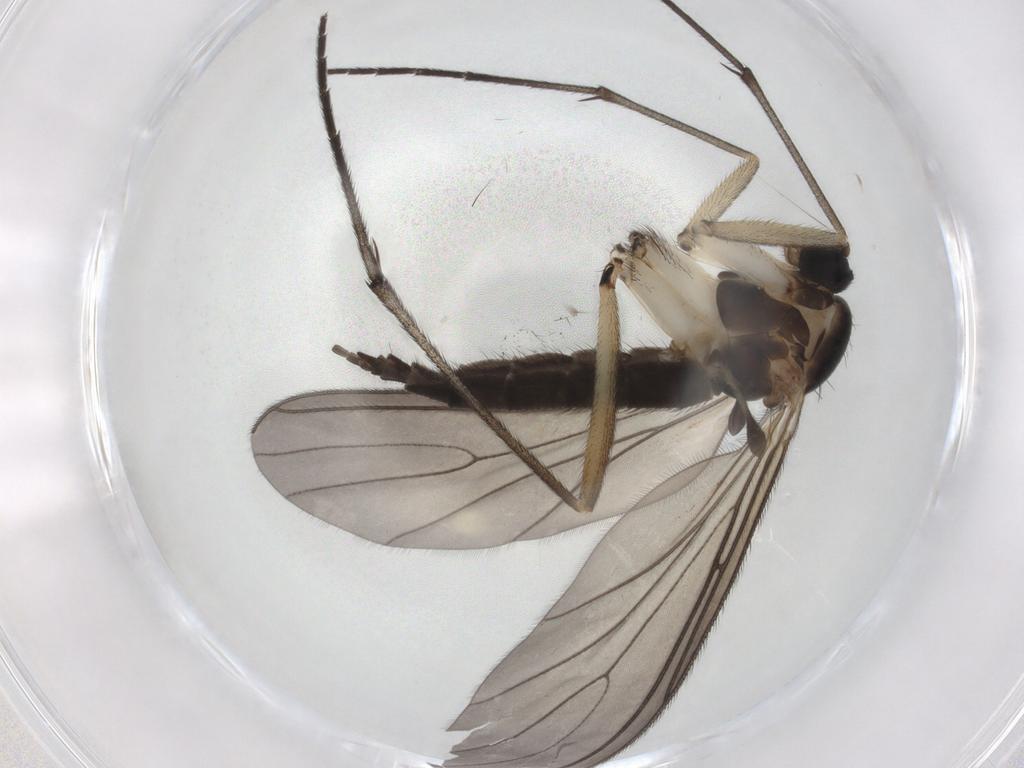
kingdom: Animalia
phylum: Arthropoda
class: Insecta
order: Diptera
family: Sciaridae
